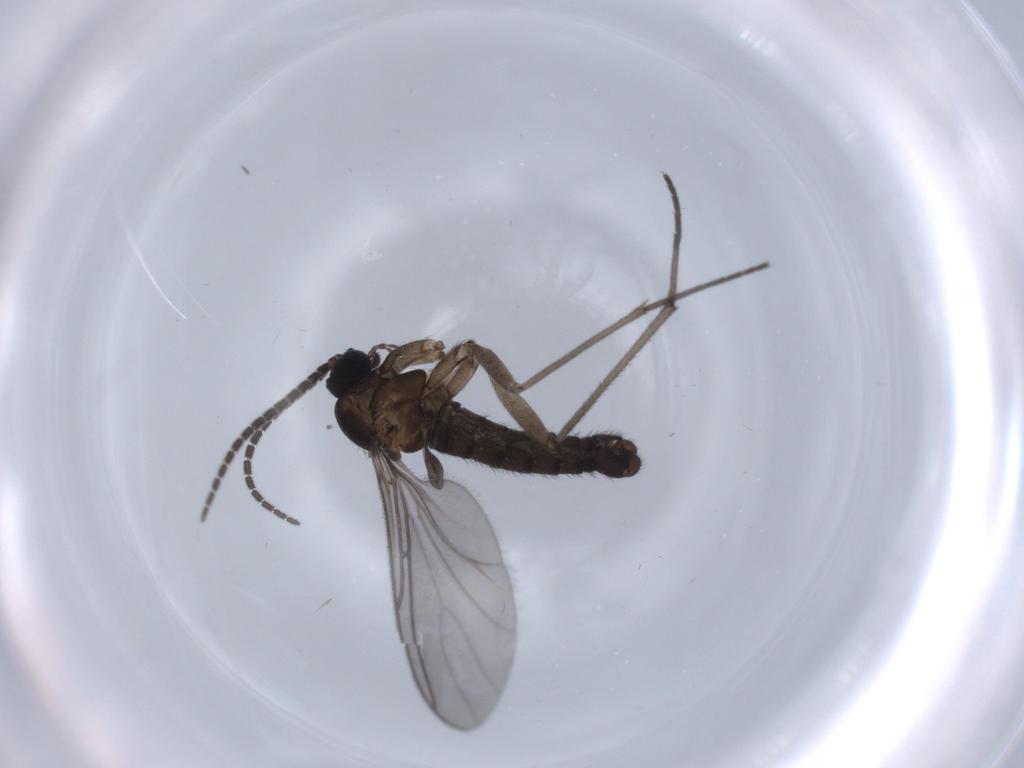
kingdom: Animalia
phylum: Arthropoda
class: Insecta
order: Diptera
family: Sciaridae
